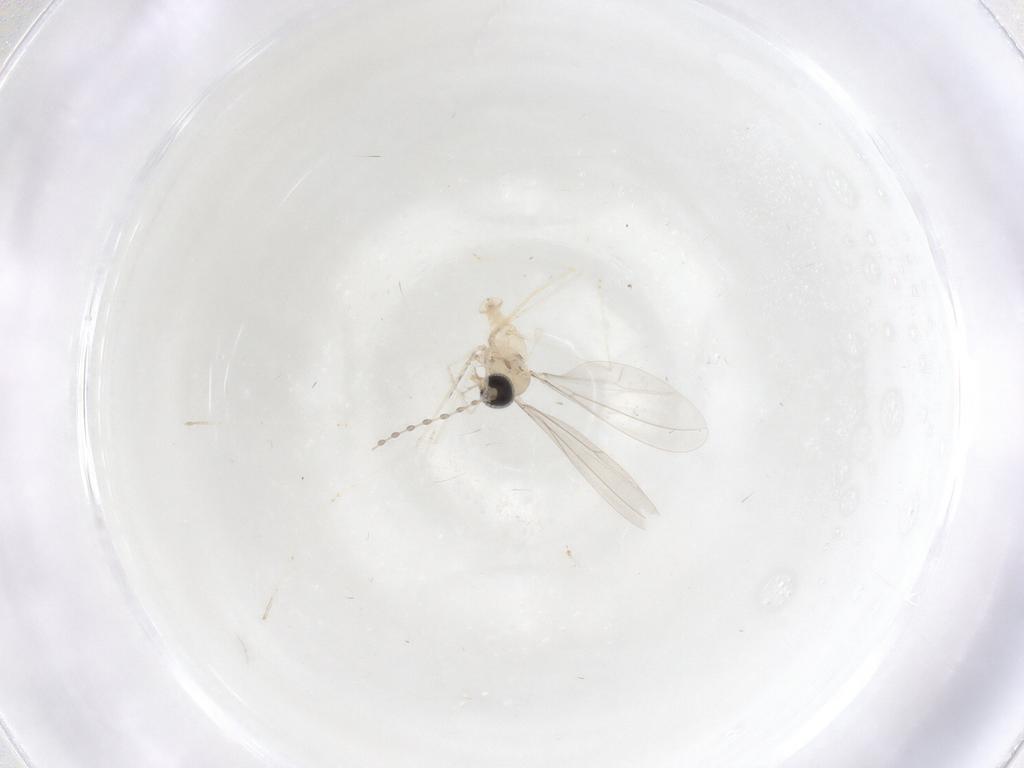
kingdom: Animalia
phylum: Arthropoda
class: Insecta
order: Diptera
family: Cecidomyiidae
